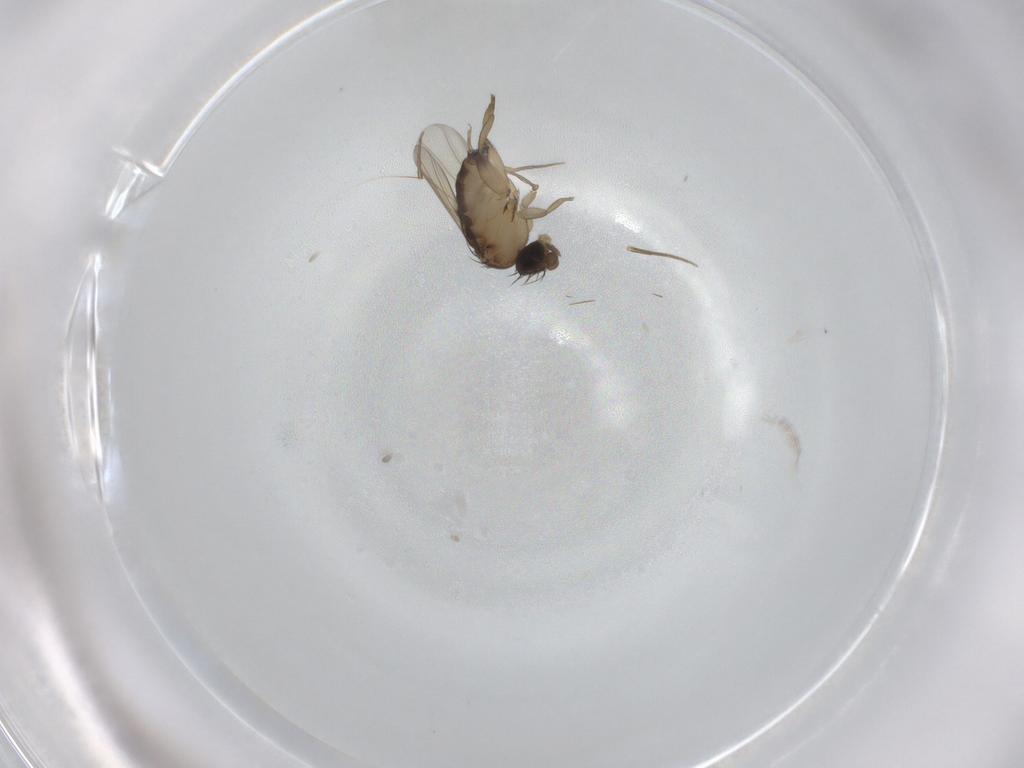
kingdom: Animalia
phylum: Arthropoda
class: Insecta
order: Diptera
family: Phoridae
